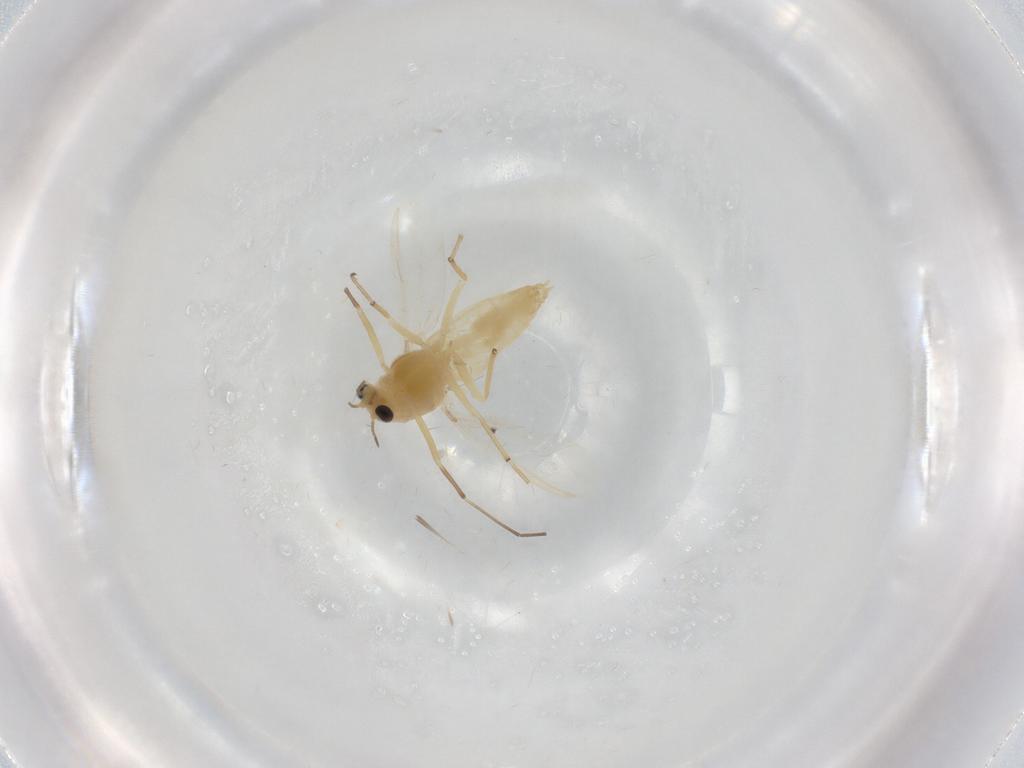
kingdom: Animalia
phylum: Arthropoda
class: Insecta
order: Diptera
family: Chironomidae
